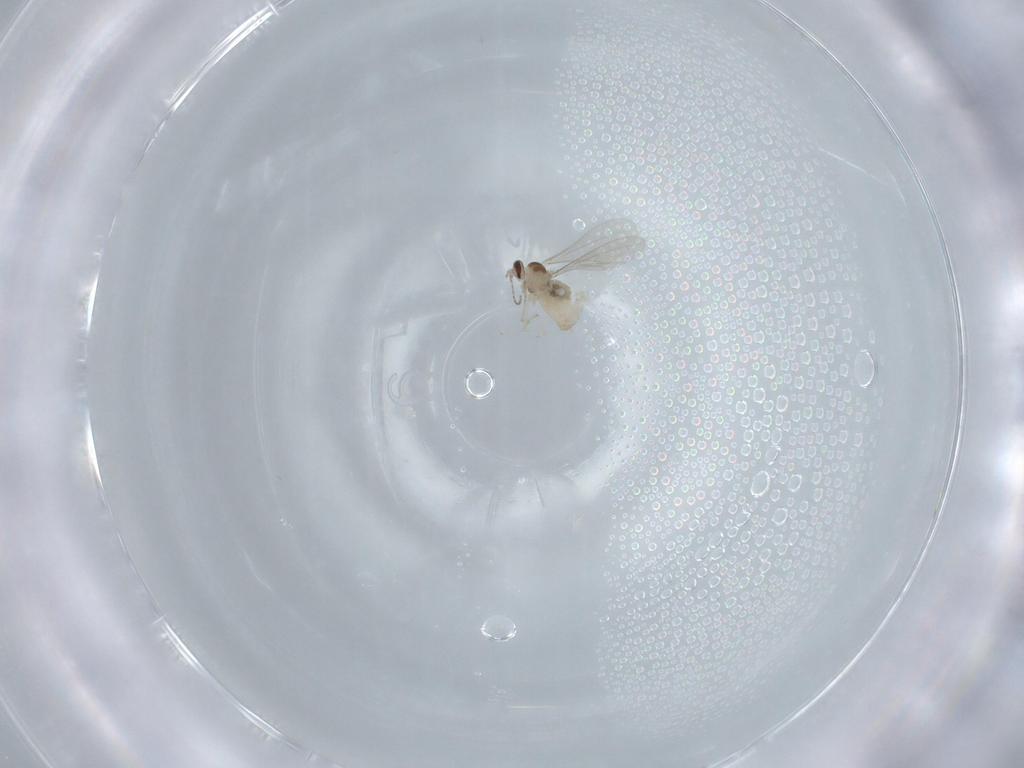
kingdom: Animalia
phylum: Arthropoda
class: Insecta
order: Diptera
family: Cecidomyiidae
